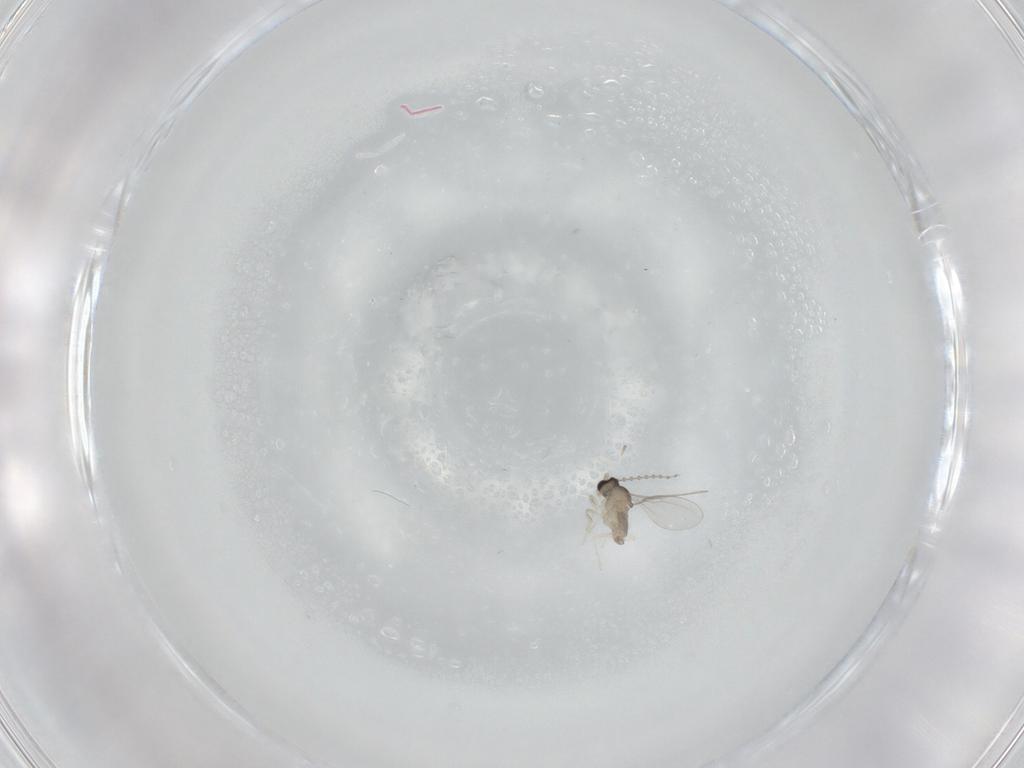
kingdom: Animalia
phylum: Arthropoda
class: Insecta
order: Diptera
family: Cecidomyiidae
